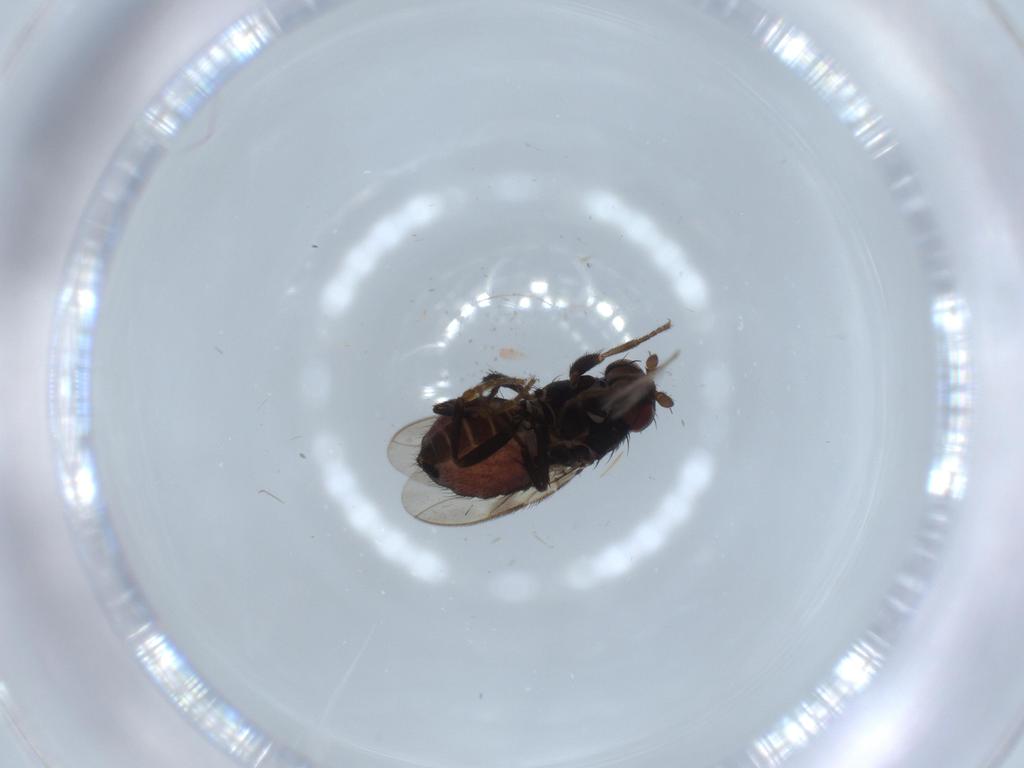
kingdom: Animalia
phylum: Arthropoda
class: Insecta
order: Diptera
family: Chironomidae
